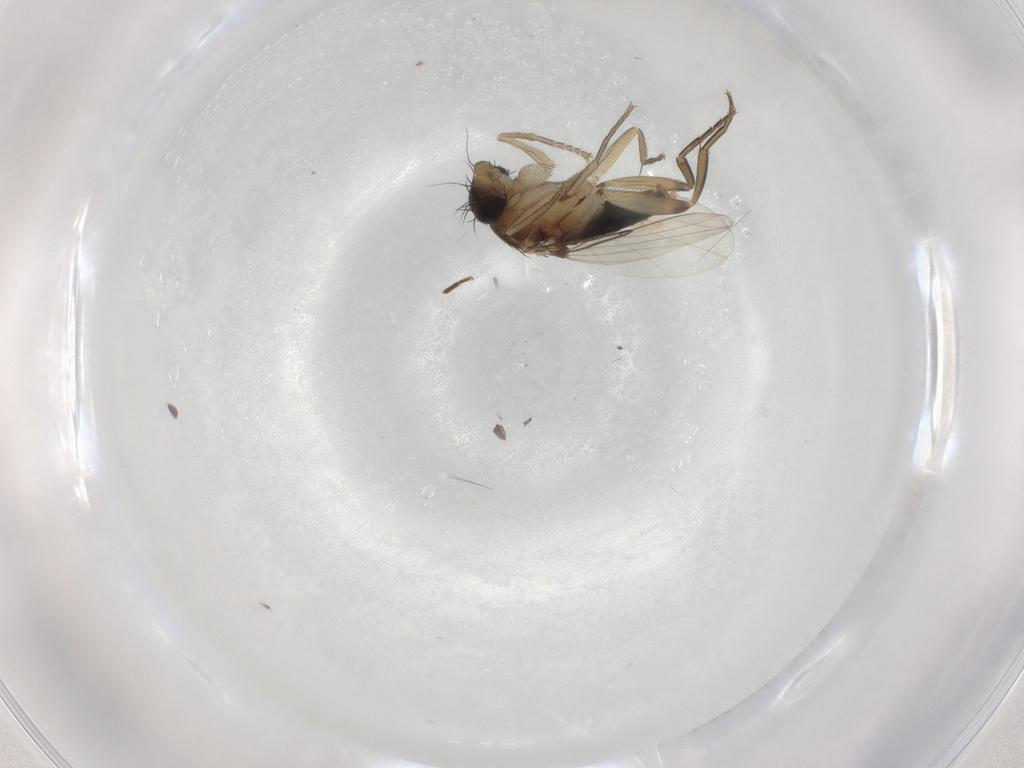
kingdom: Animalia
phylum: Arthropoda
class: Insecta
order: Diptera
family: Phoridae
